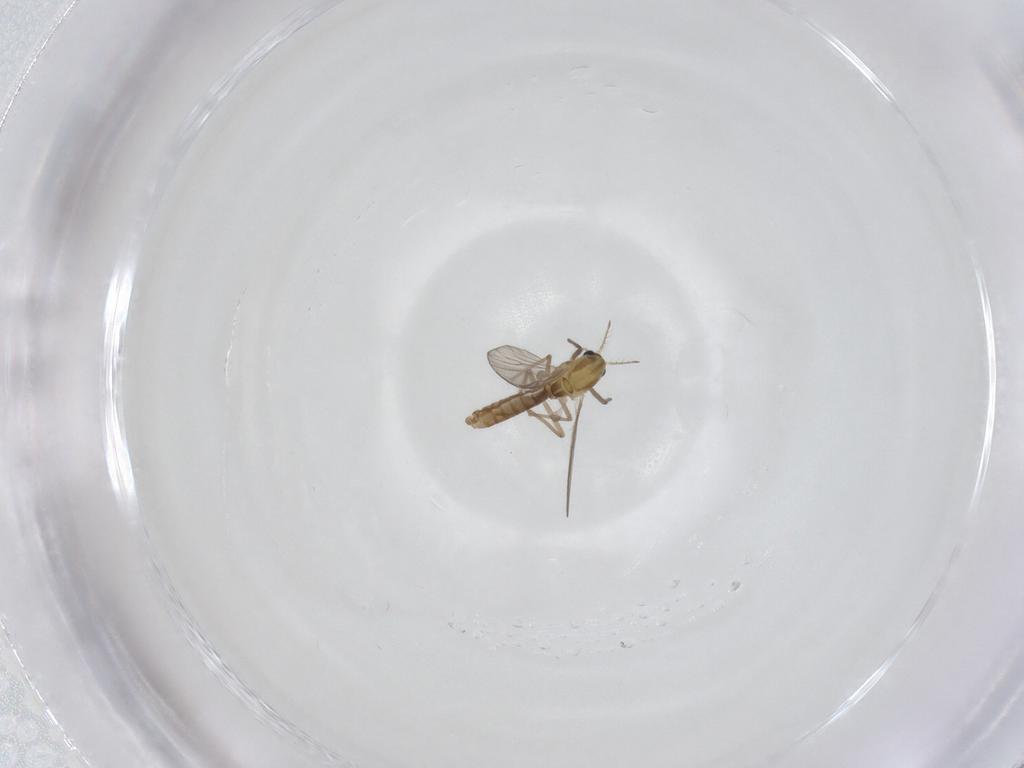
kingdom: Animalia
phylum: Arthropoda
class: Insecta
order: Diptera
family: Chironomidae
